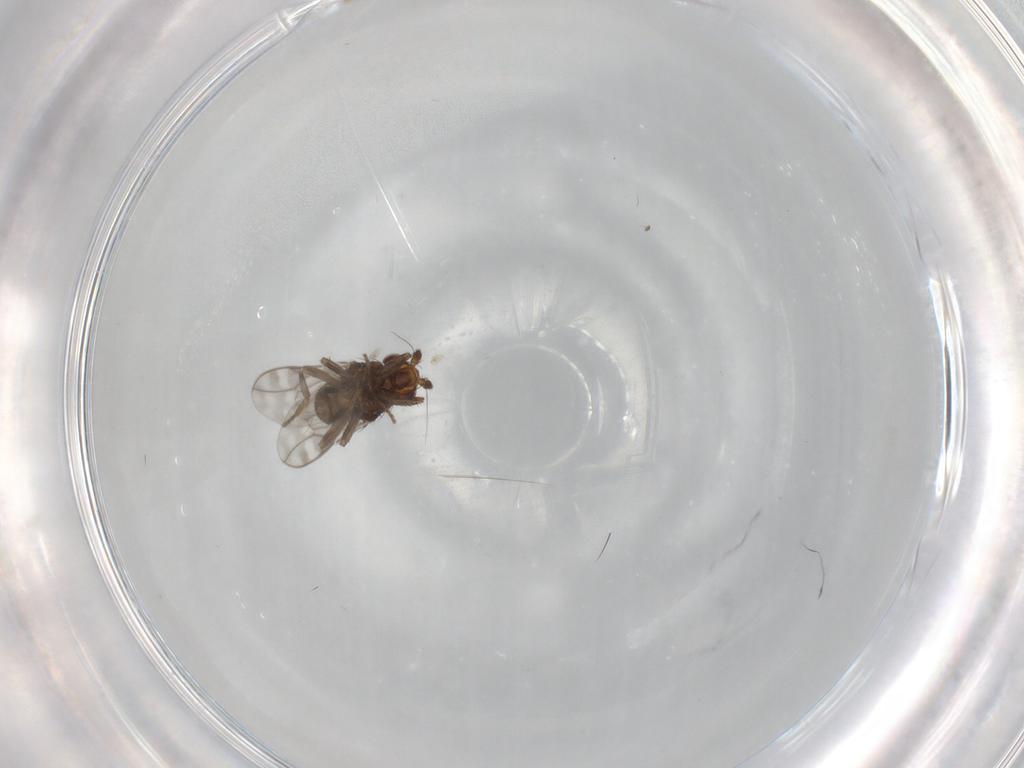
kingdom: Animalia
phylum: Arthropoda
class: Insecta
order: Diptera
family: Sphaeroceridae
